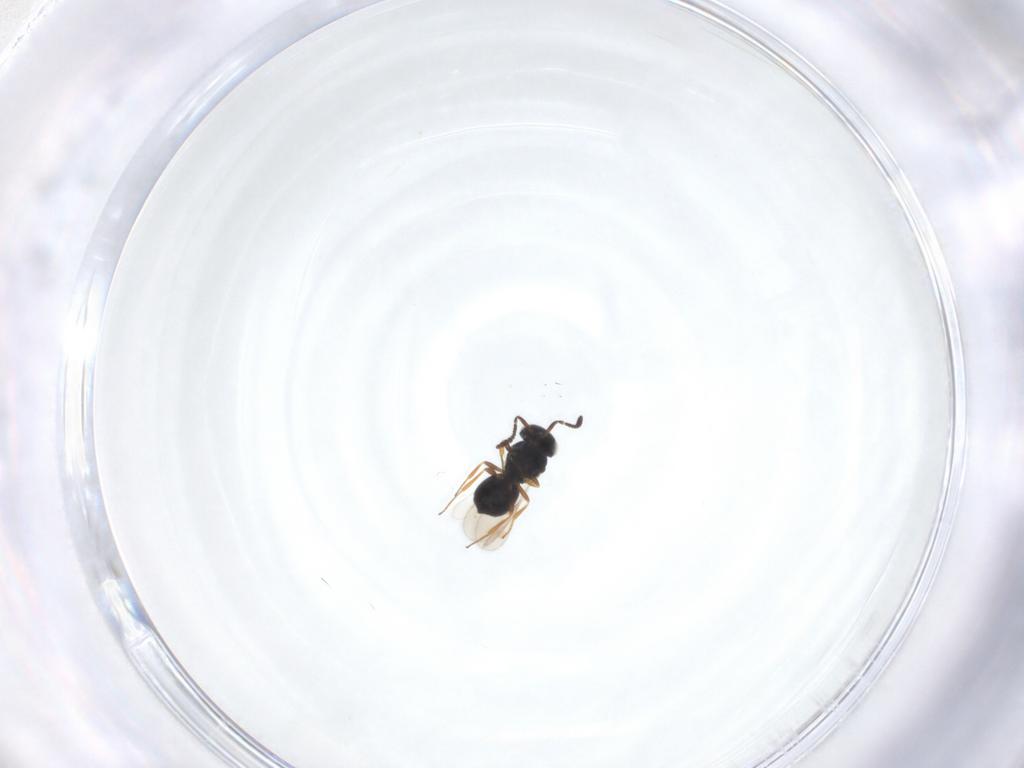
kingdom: Animalia
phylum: Arthropoda
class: Insecta
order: Hymenoptera
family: Scelionidae
